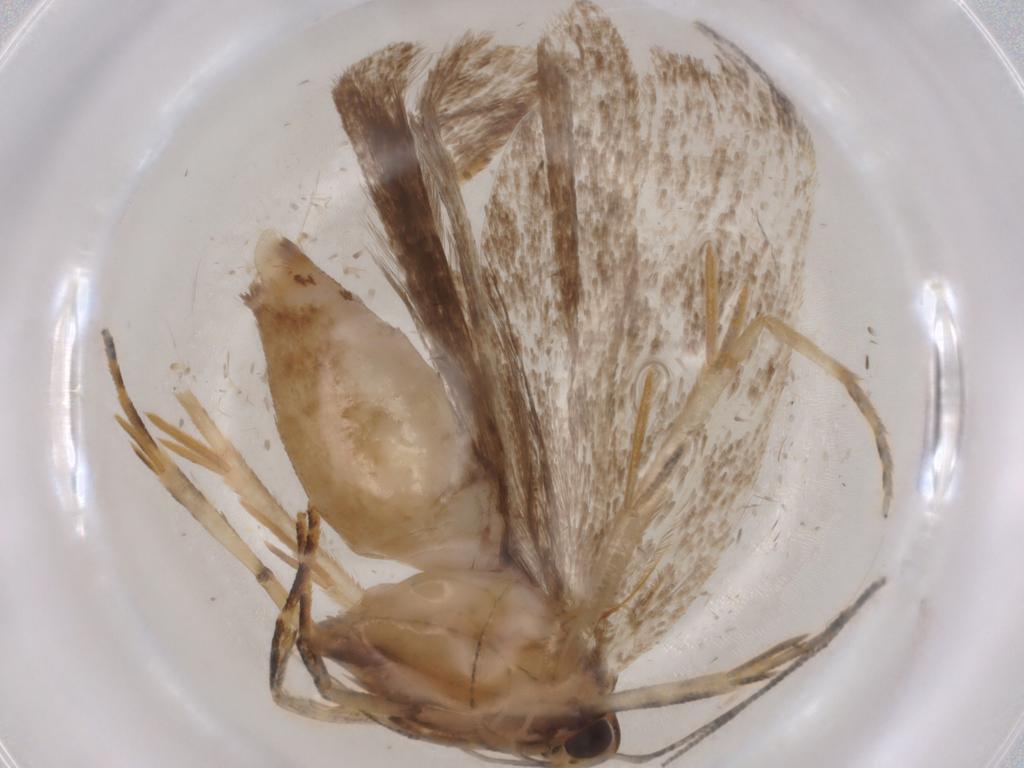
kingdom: Animalia
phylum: Arthropoda
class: Insecta
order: Lepidoptera
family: Gelechiidae
